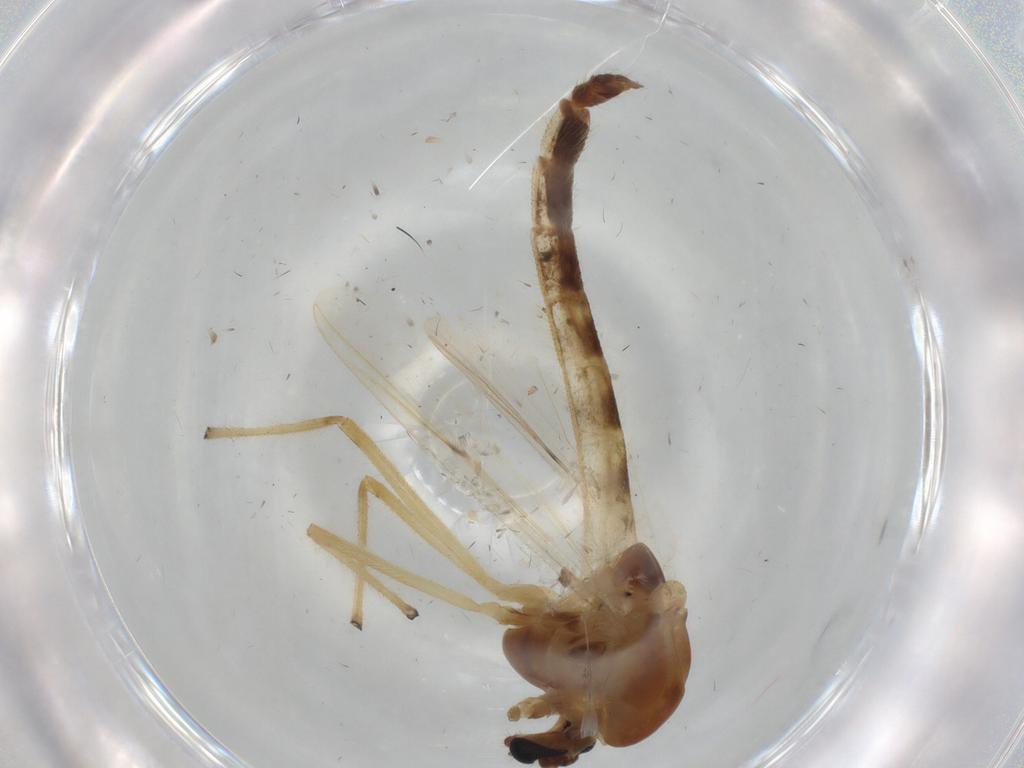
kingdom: Animalia
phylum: Arthropoda
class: Insecta
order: Diptera
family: Chironomidae
